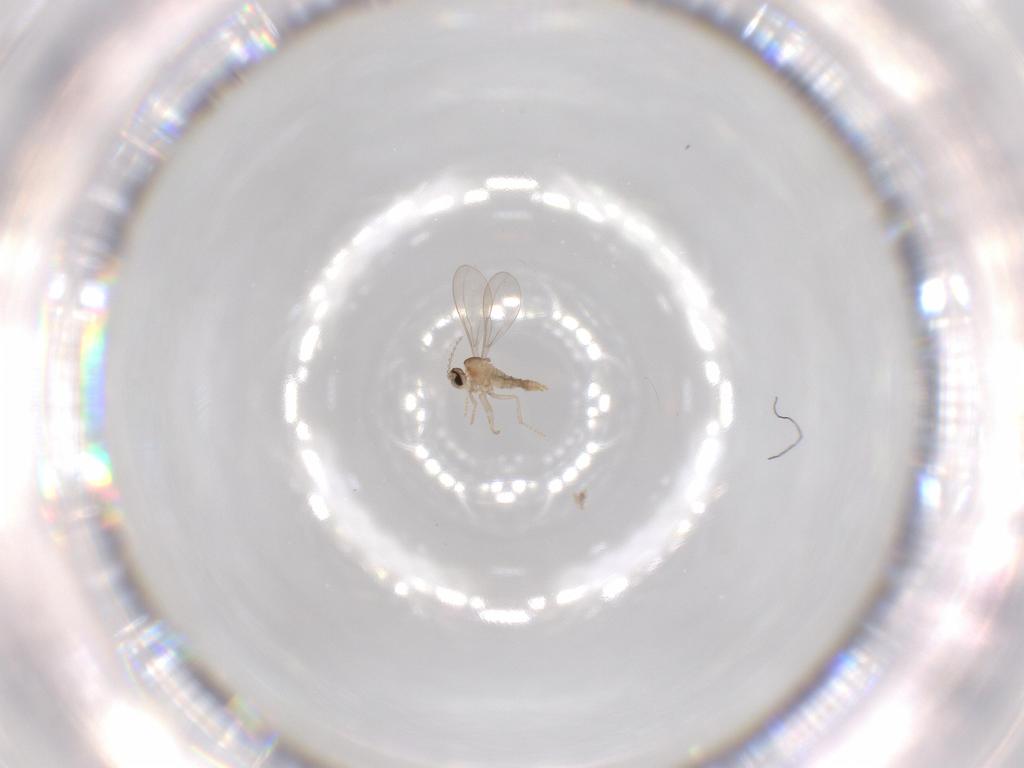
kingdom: Animalia
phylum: Arthropoda
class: Insecta
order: Diptera
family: Cecidomyiidae
